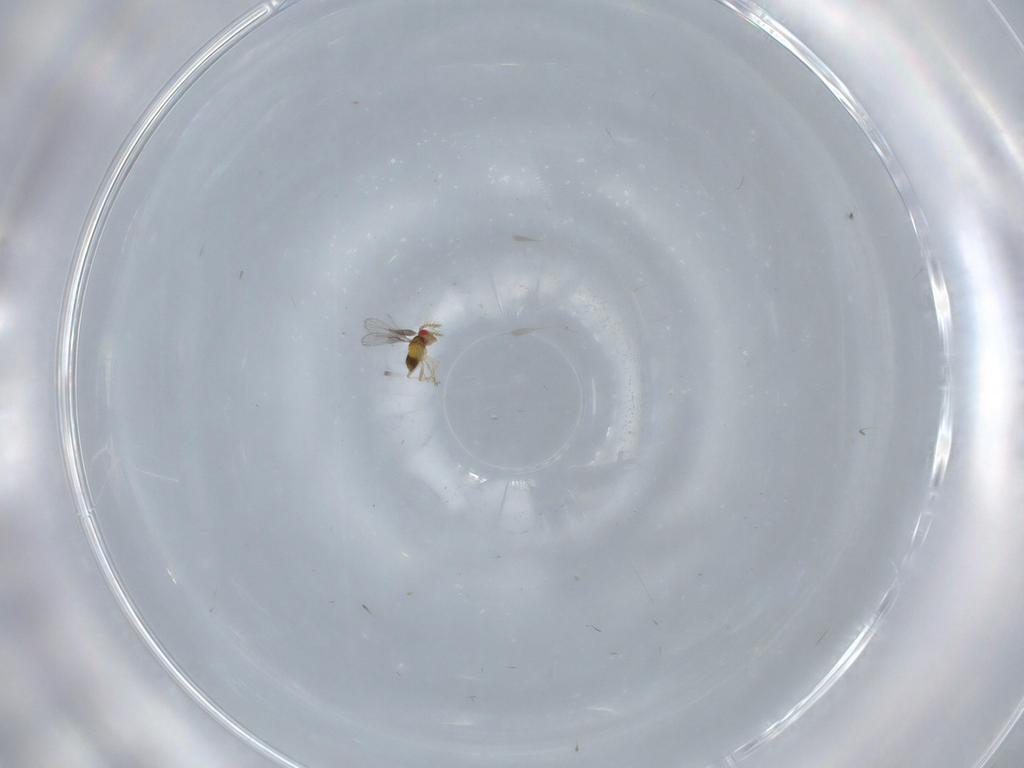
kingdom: Animalia
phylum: Arthropoda
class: Insecta
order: Hymenoptera
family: Trichogrammatidae
